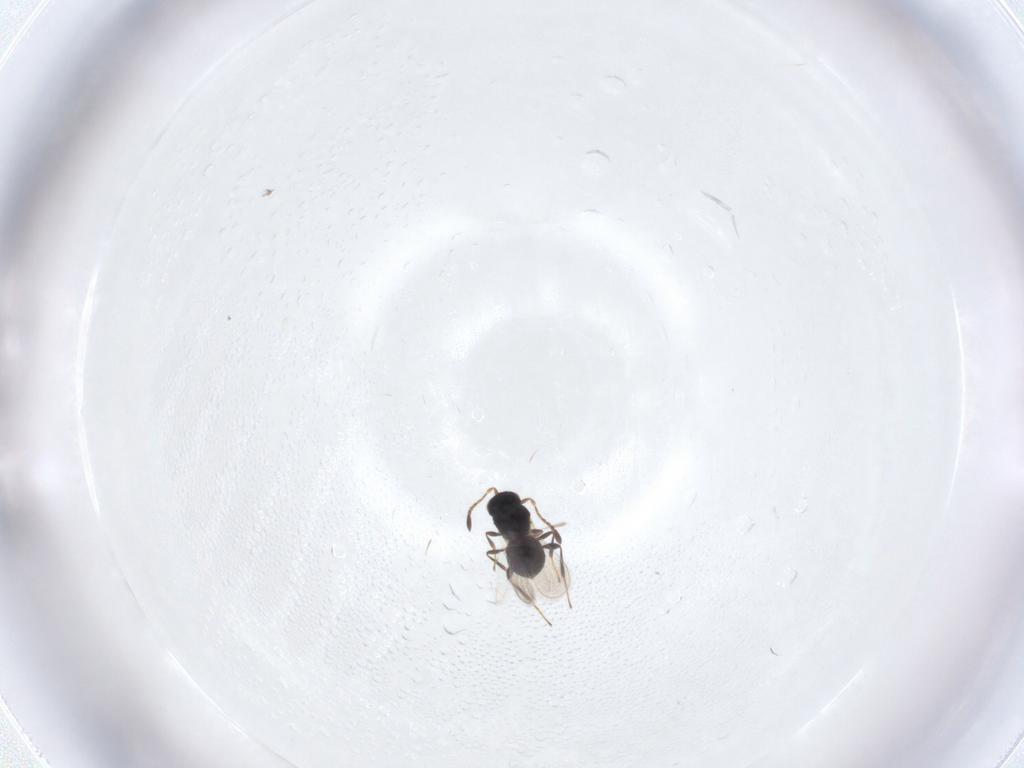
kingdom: Animalia
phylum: Arthropoda
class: Insecta
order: Hymenoptera
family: Platygastridae
